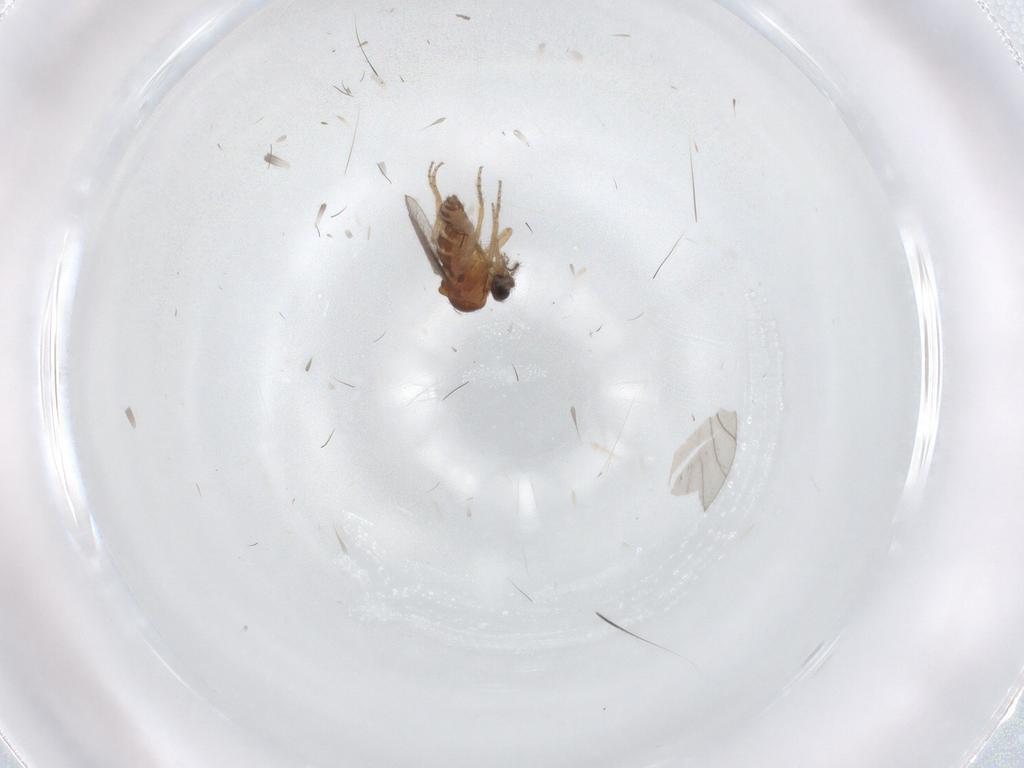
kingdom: Animalia
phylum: Arthropoda
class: Insecta
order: Diptera
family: Ceratopogonidae
